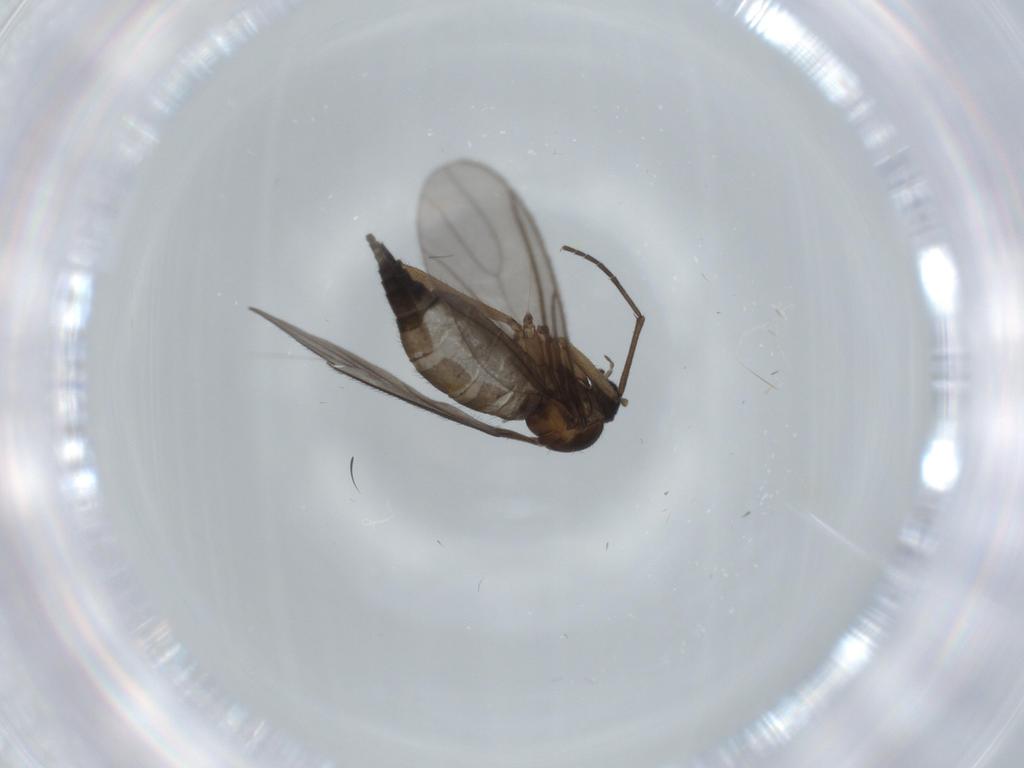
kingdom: Animalia
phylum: Arthropoda
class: Insecta
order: Diptera
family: Sciaridae
